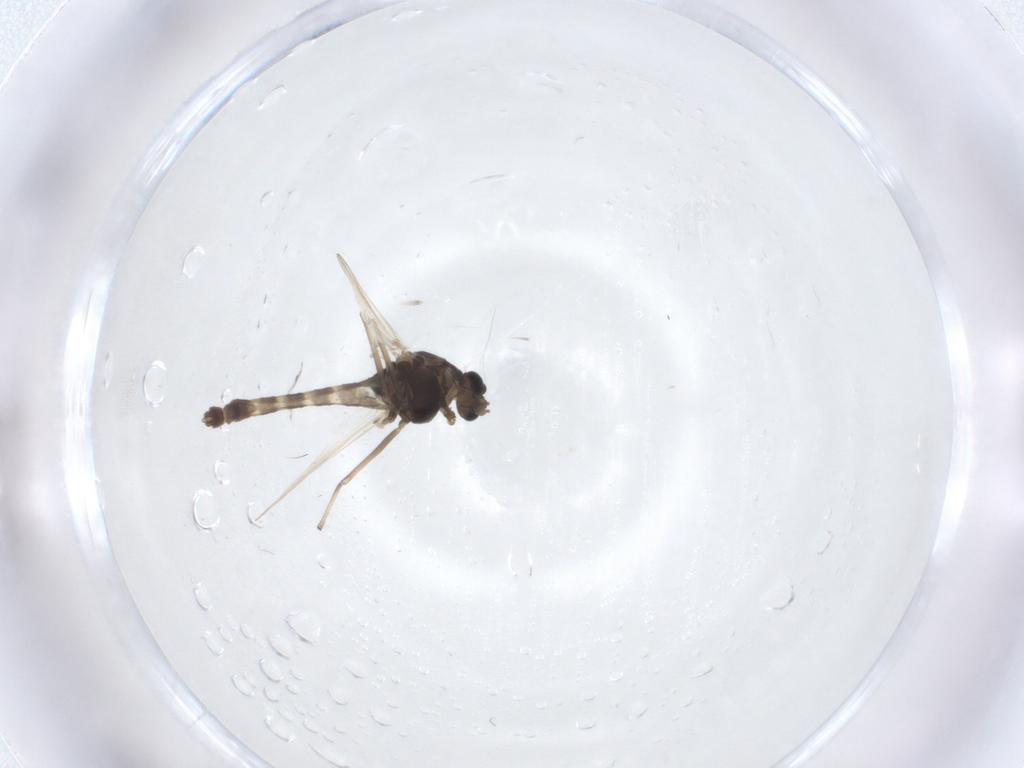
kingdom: Animalia
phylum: Arthropoda
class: Insecta
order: Diptera
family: Chironomidae
